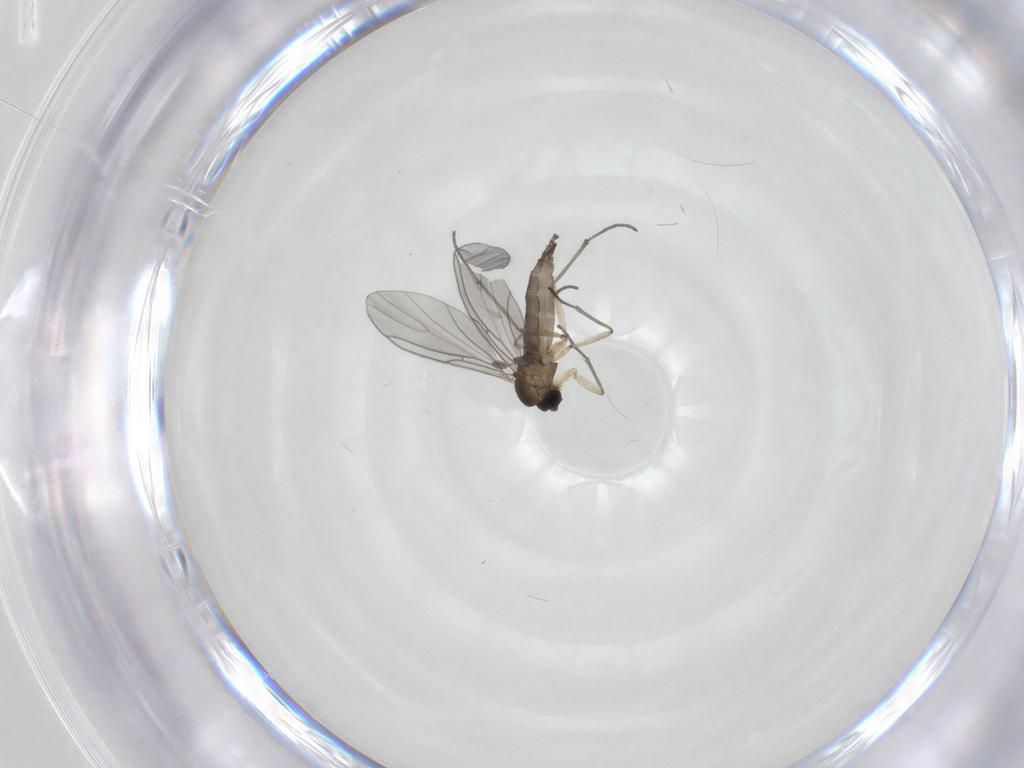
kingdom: Animalia
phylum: Arthropoda
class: Insecta
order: Diptera
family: Sciaridae
